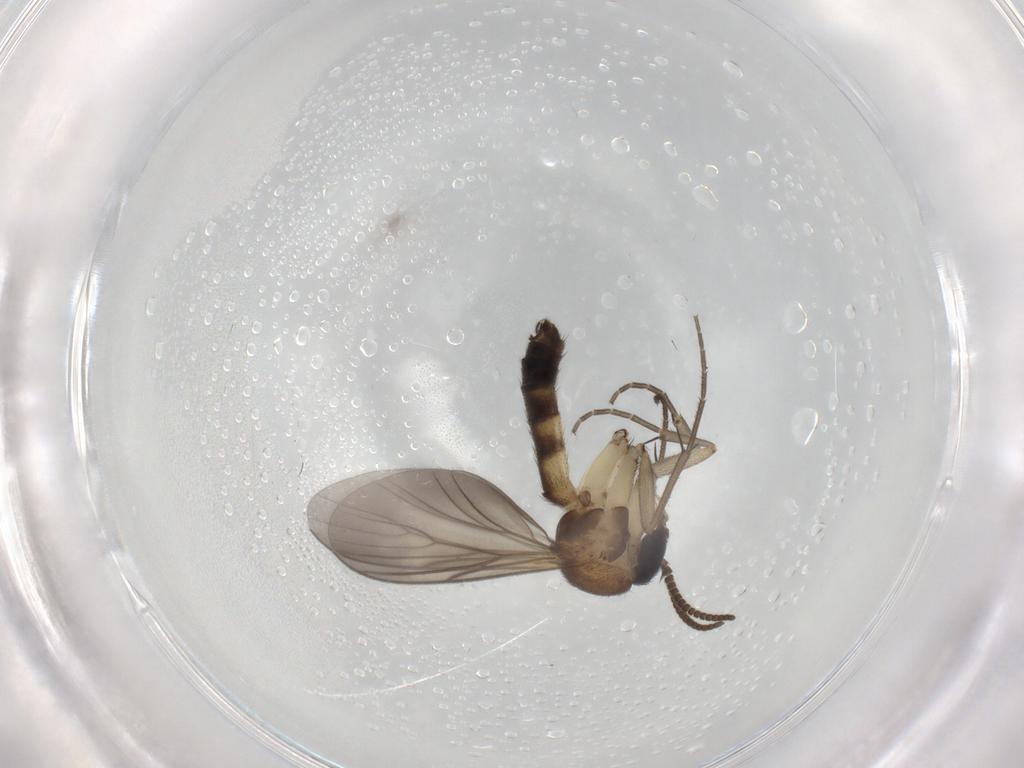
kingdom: Animalia
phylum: Arthropoda
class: Insecta
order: Diptera
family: Mycetophilidae
